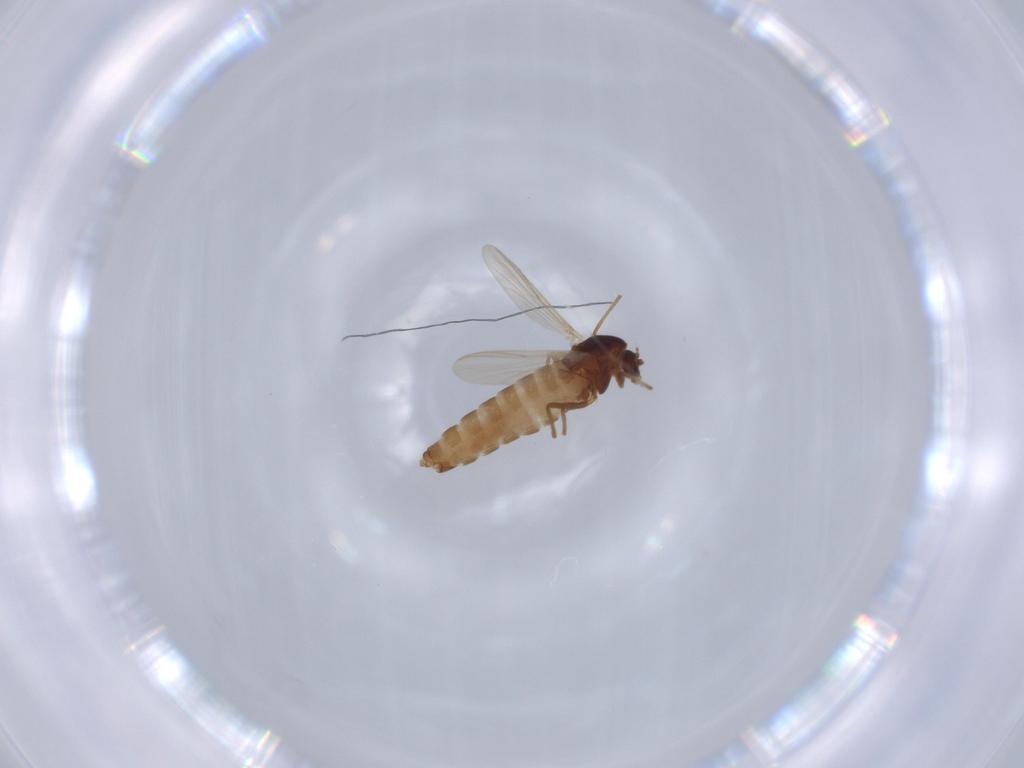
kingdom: Animalia
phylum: Arthropoda
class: Insecta
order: Diptera
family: Chironomidae
